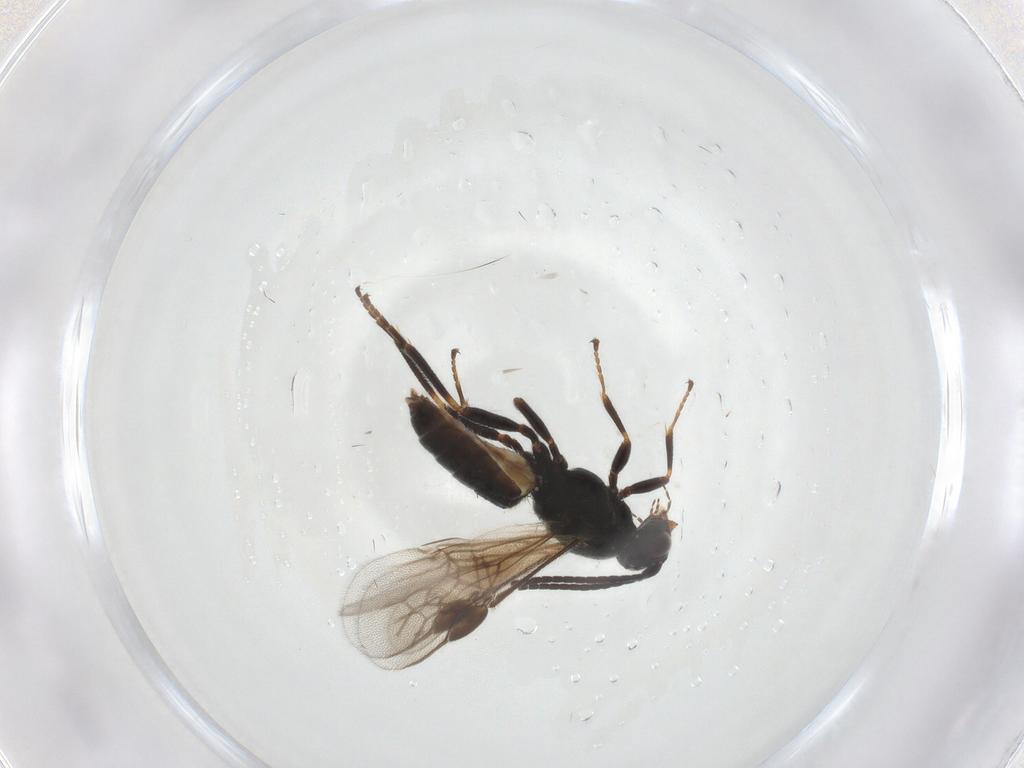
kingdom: Animalia
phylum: Arthropoda
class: Insecta
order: Hymenoptera
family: Braconidae
